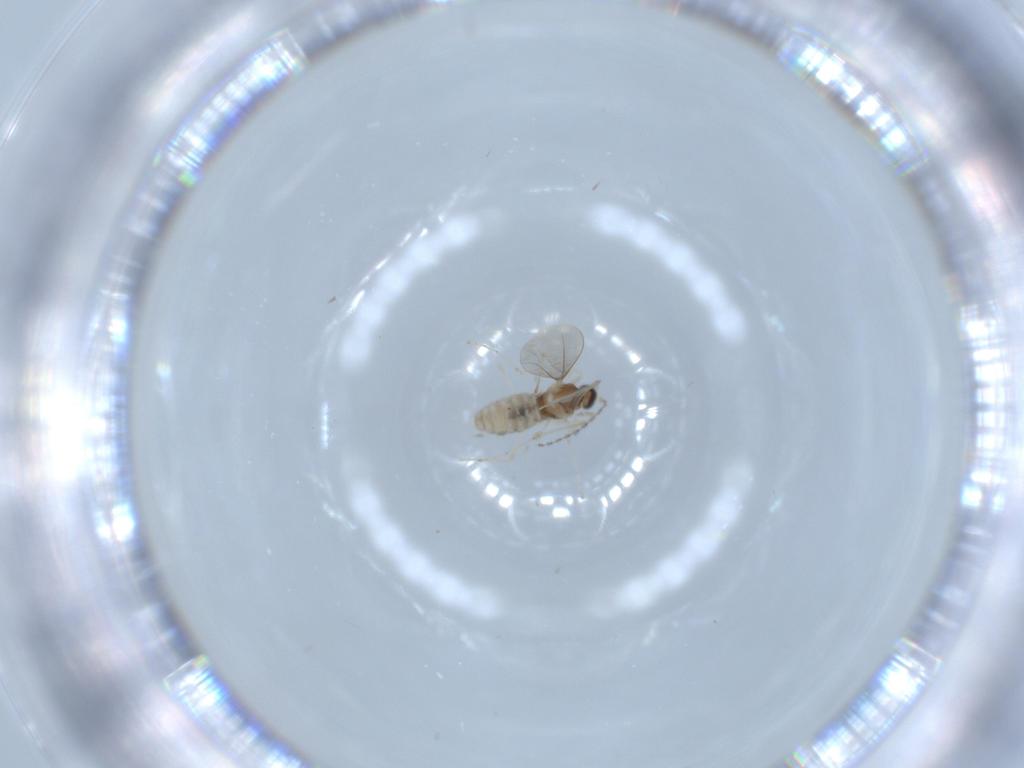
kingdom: Animalia
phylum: Arthropoda
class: Insecta
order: Diptera
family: Cecidomyiidae
